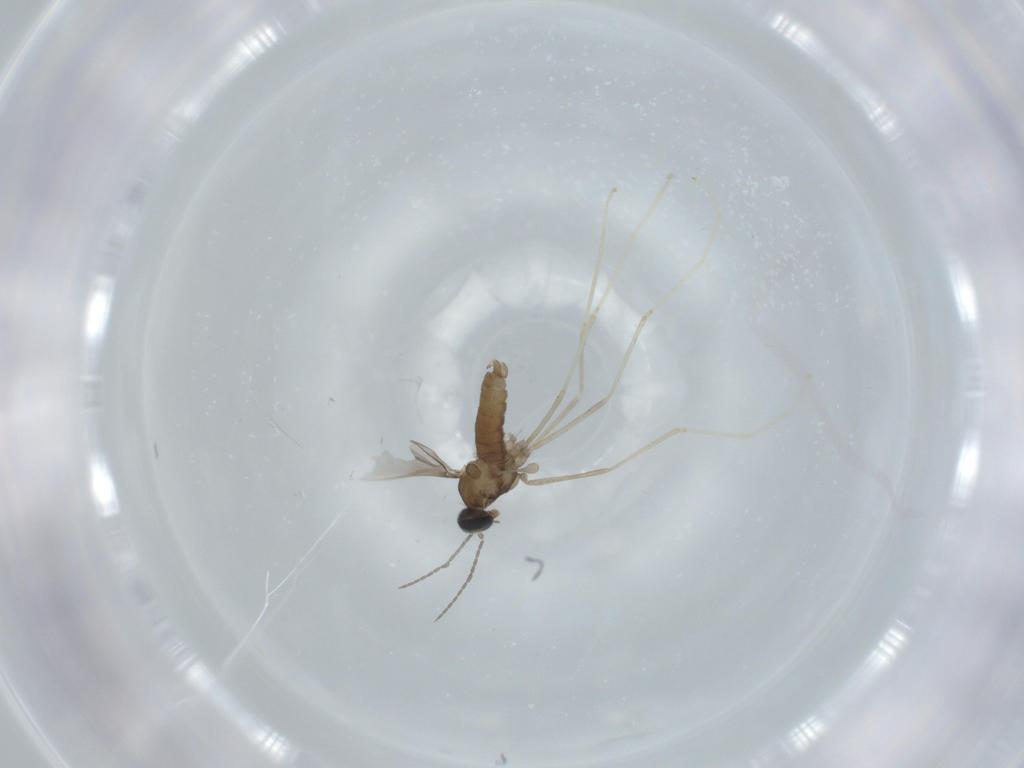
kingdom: Animalia
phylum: Arthropoda
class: Insecta
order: Diptera
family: Cecidomyiidae
